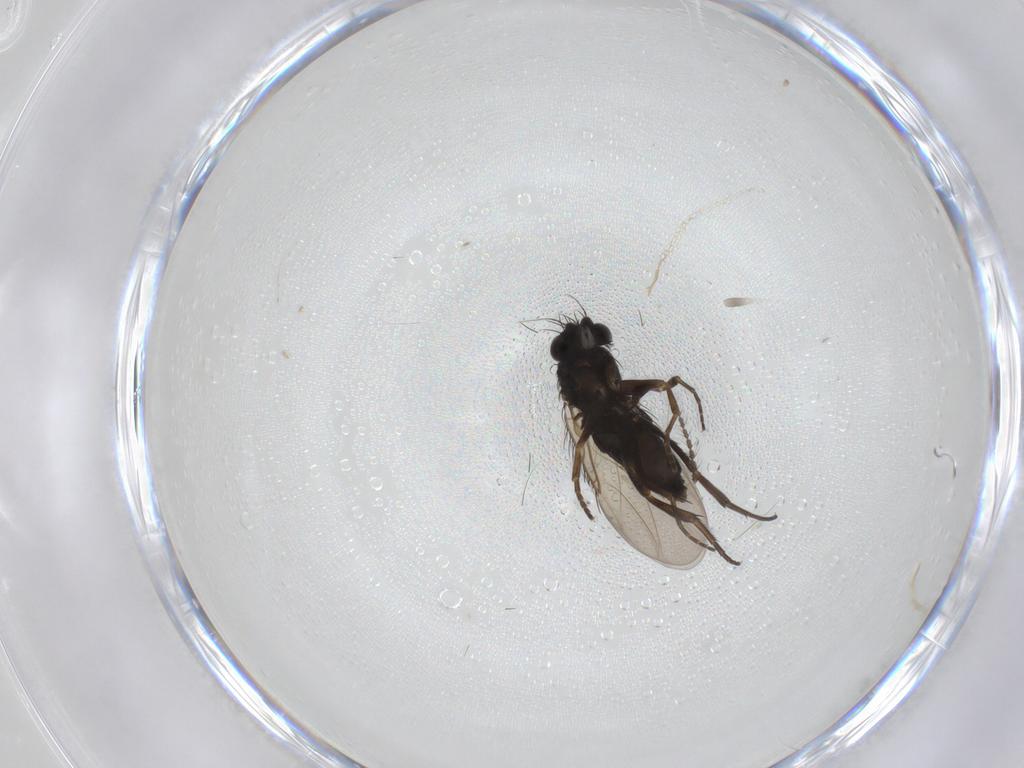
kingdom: Animalia
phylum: Arthropoda
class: Insecta
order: Diptera
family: Phoridae
